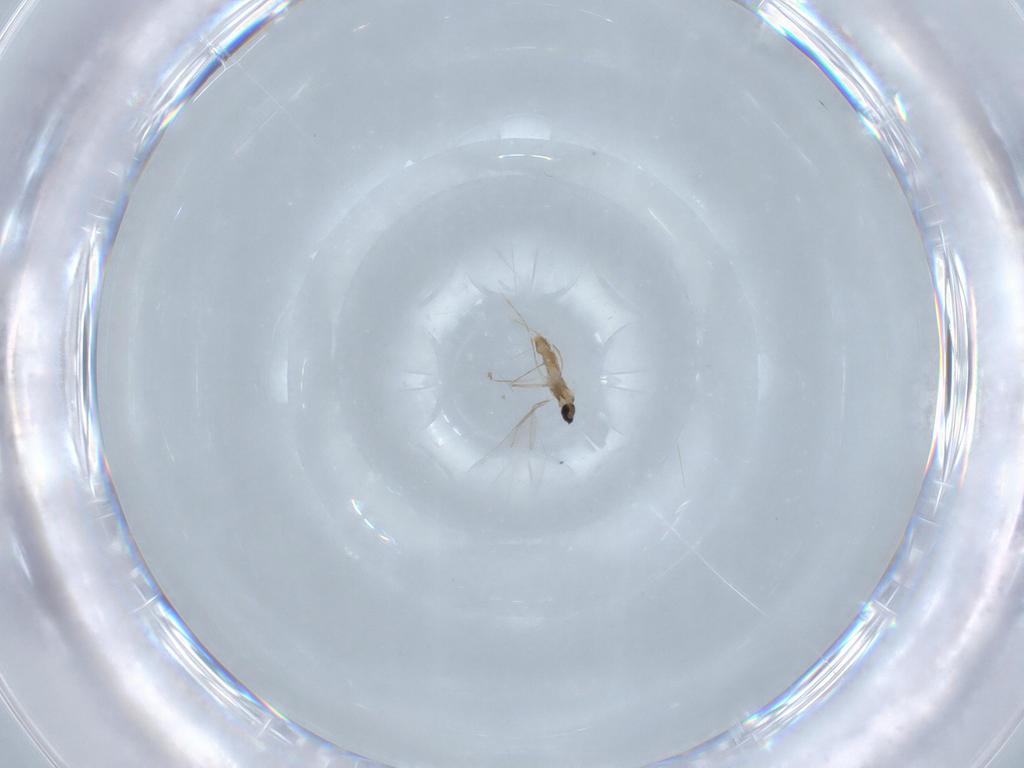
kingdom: Animalia
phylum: Arthropoda
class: Insecta
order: Diptera
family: Cecidomyiidae
